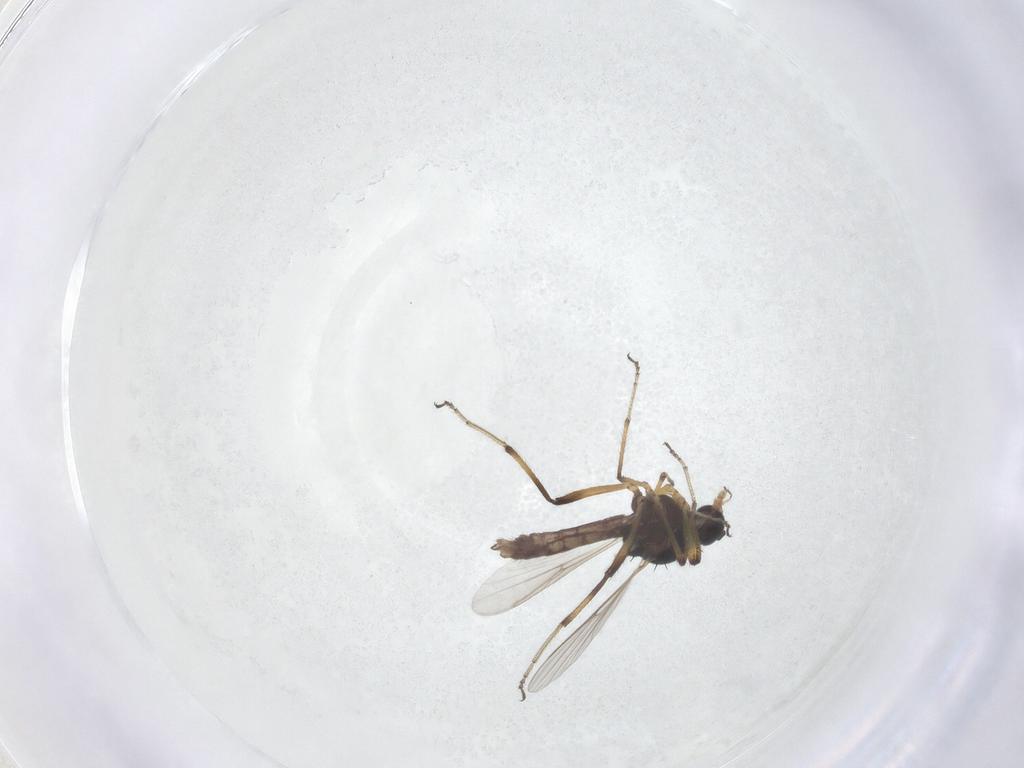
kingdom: Animalia
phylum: Arthropoda
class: Insecta
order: Diptera
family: Ceratopogonidae
